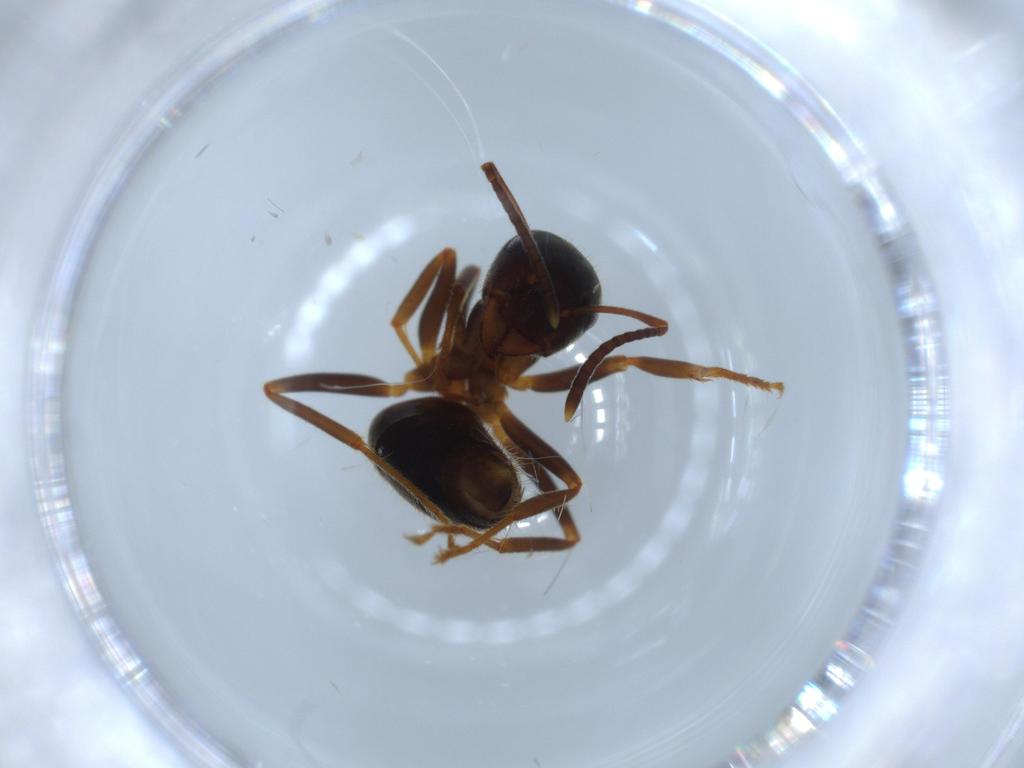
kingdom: Animalia
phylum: Arthropoda
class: Insecta
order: Hymenoptera
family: Formicidae
